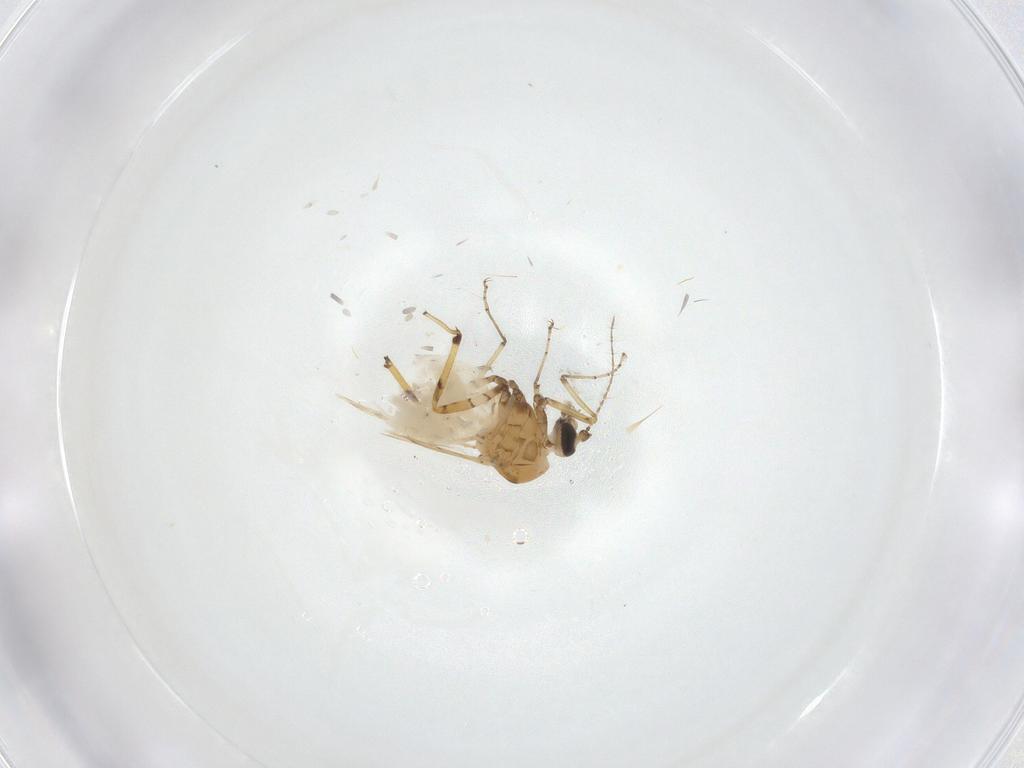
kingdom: Animalia
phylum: Arthropoda
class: Insecta
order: Diptera
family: Ceratopogonidae
